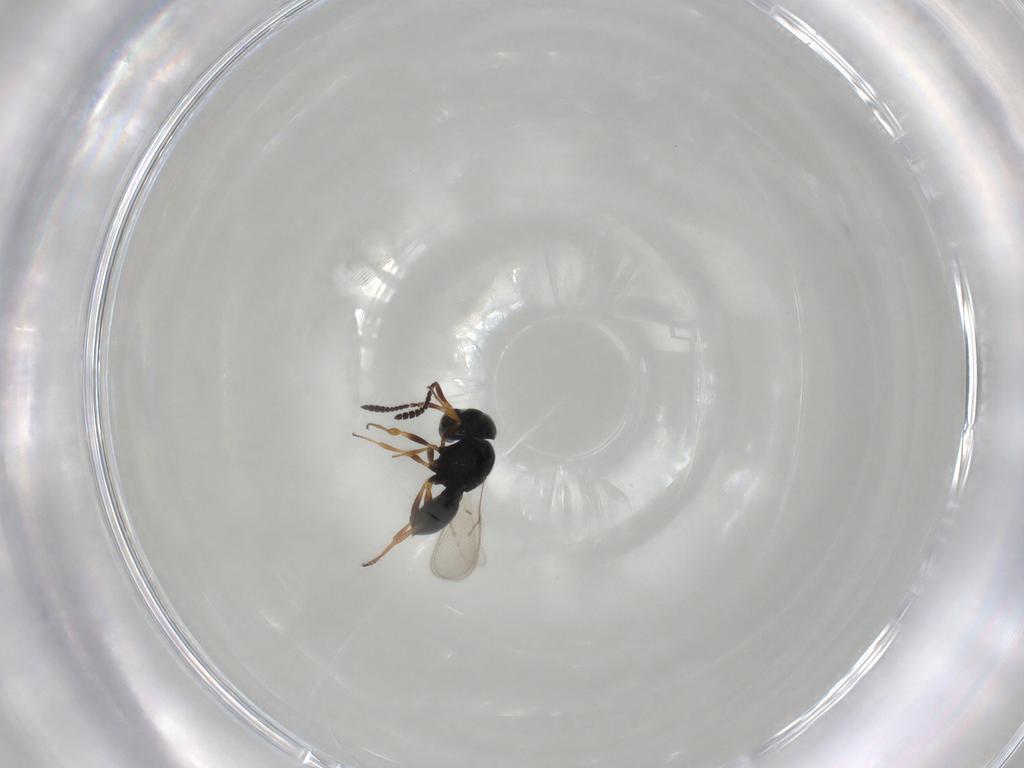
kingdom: Animalia
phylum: Arthropoda
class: Insecta
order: Hymenoptera
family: Scelionidae
